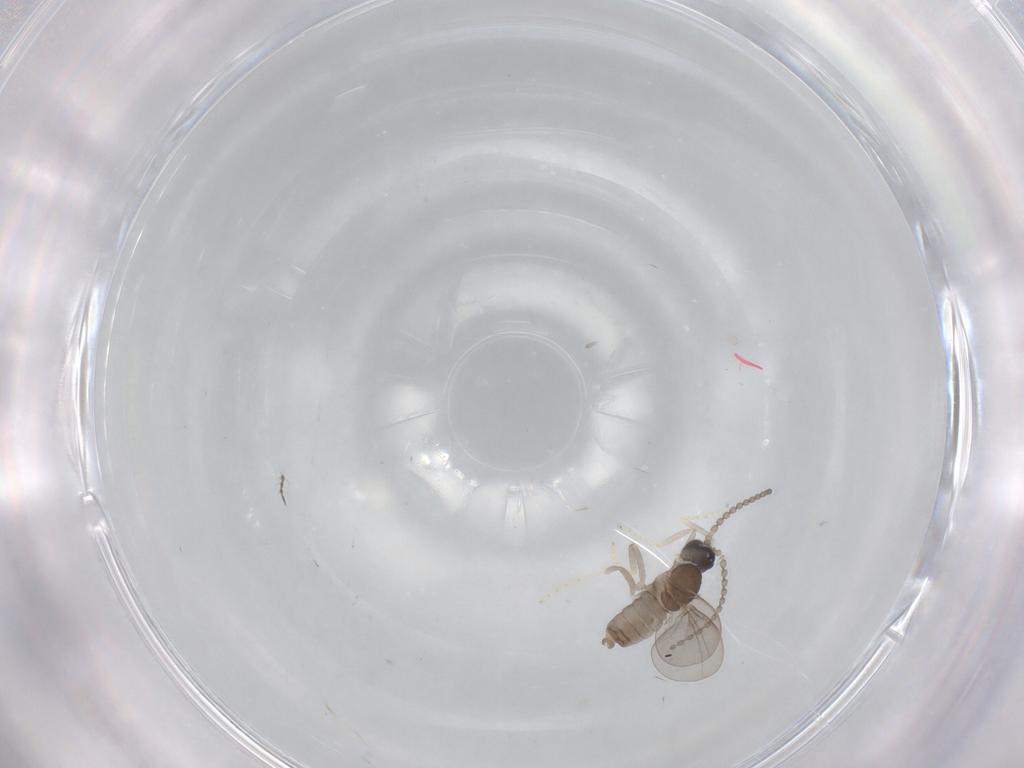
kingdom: Animalia
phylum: Arthropoda
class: Insecta
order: Diptera
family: Cecidomyiidae
